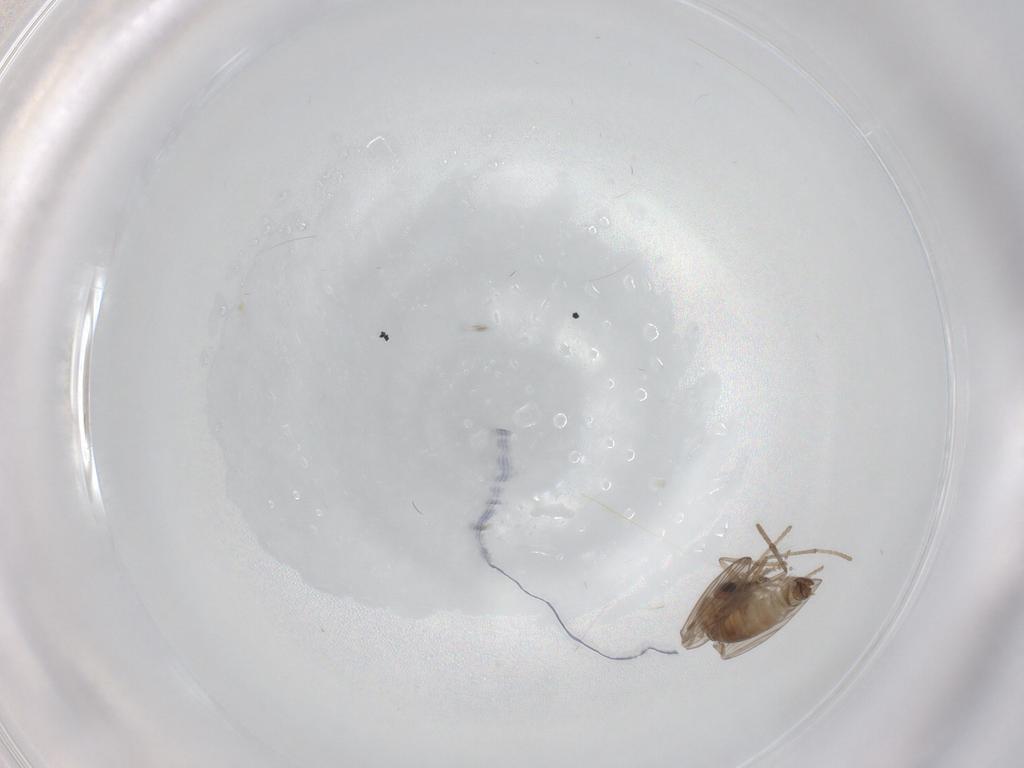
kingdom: Animalia
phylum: Arthropoda
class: Insecta
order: Diptera
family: Psychodidae
